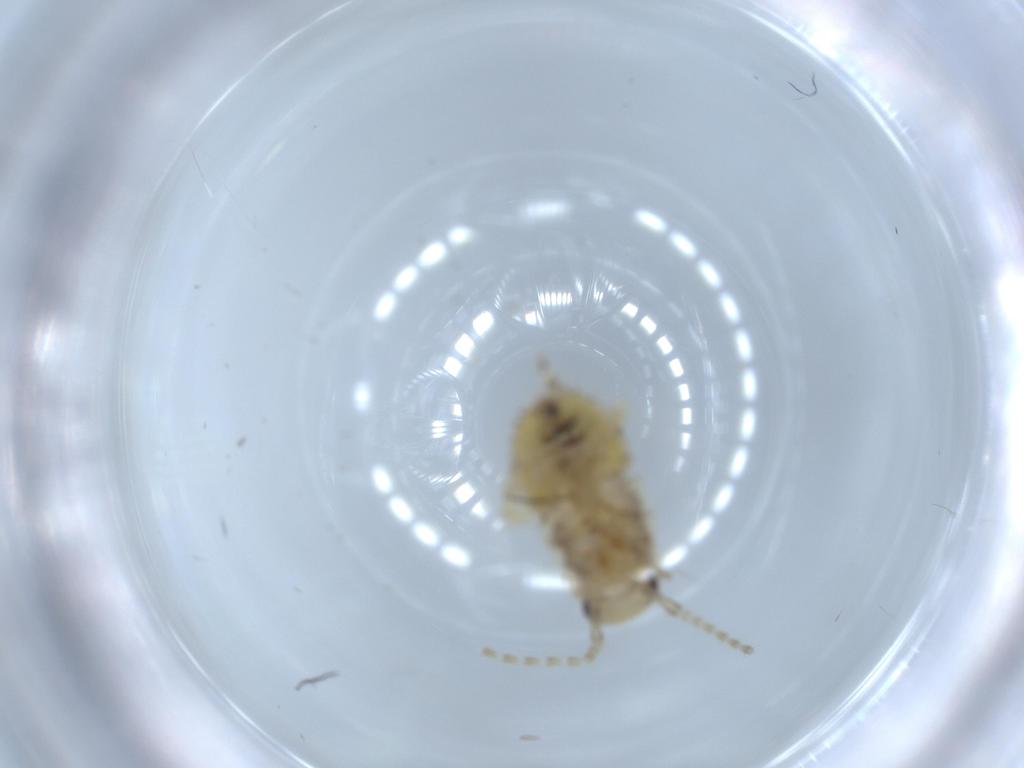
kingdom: Animalia
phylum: Arthropoda
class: Insecta
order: Blattodea
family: Ectobiidae
